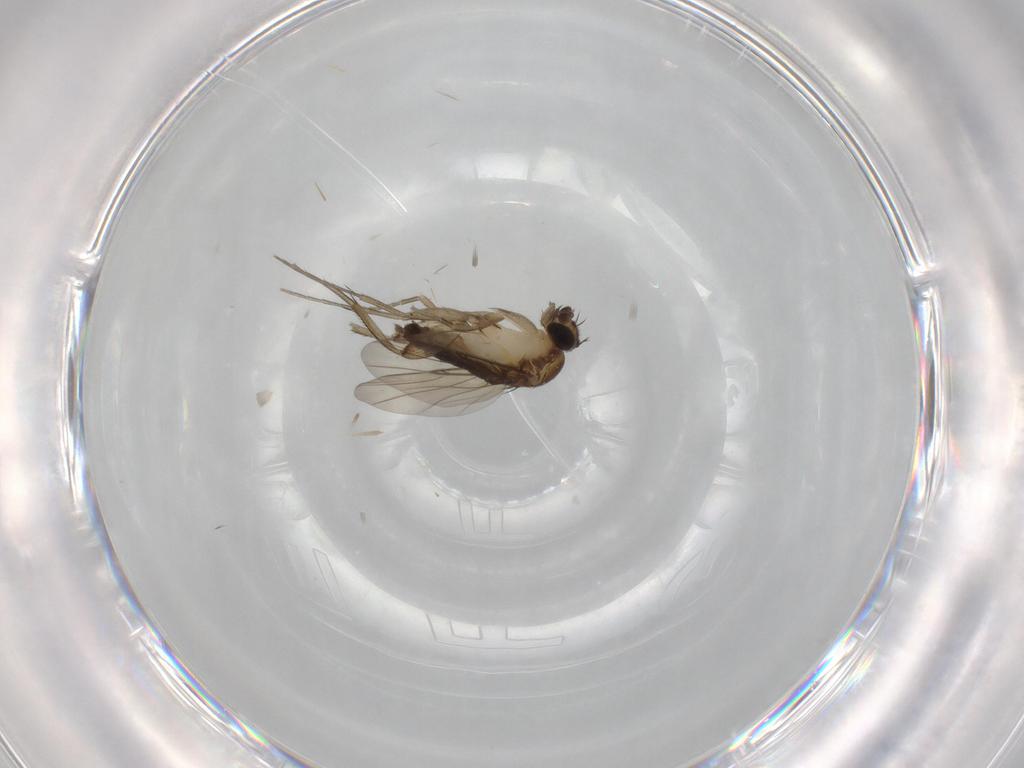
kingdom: Animalia
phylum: Arthropoda
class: Insecta
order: Diptera
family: Phoridae
